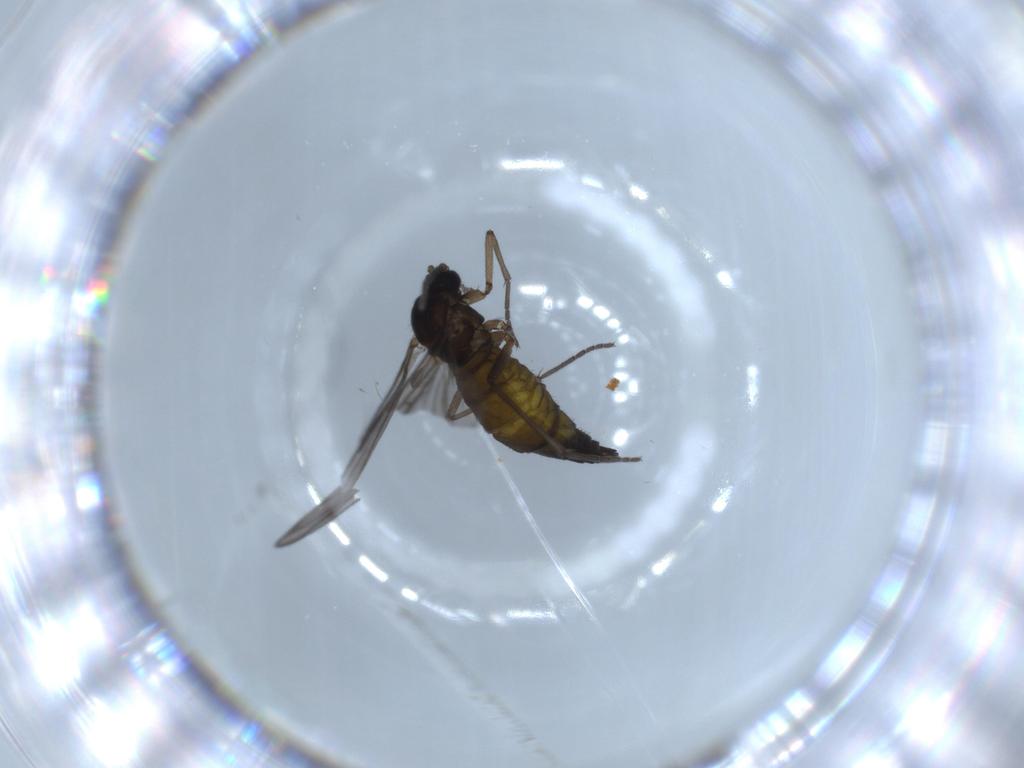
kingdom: Animalia
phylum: Arthropoda
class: Insecta
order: Diptera
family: Sciaridae
